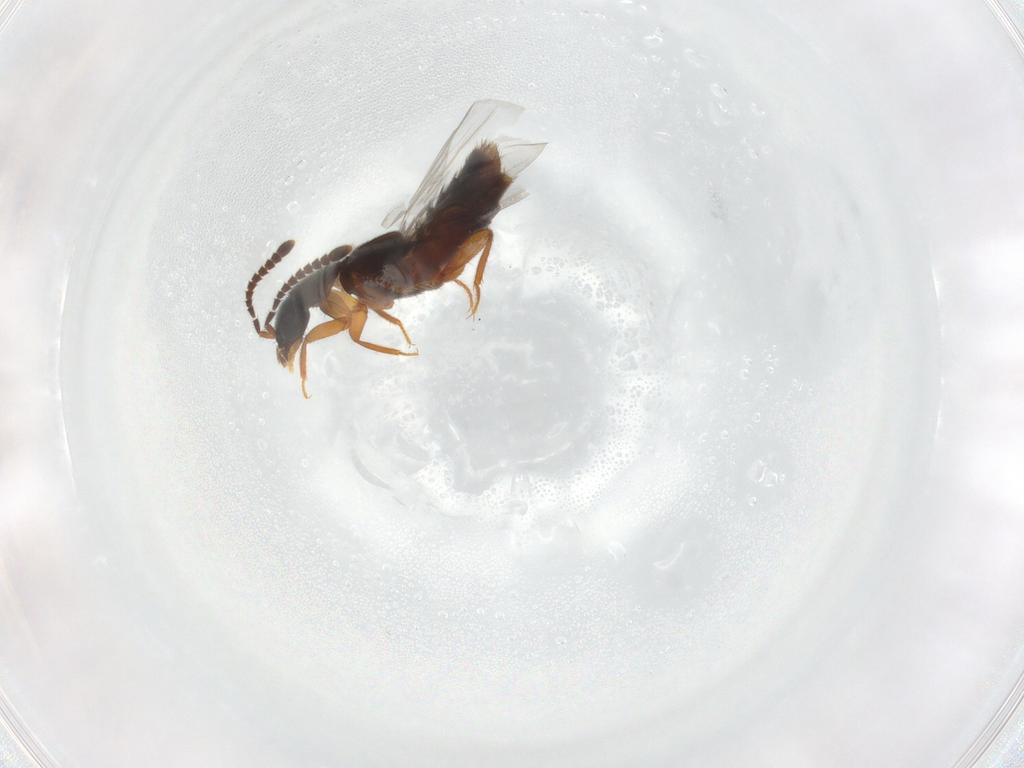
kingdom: Animalia
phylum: Arthropoda
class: Insecta
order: Coleoptera
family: Staphylinidae
